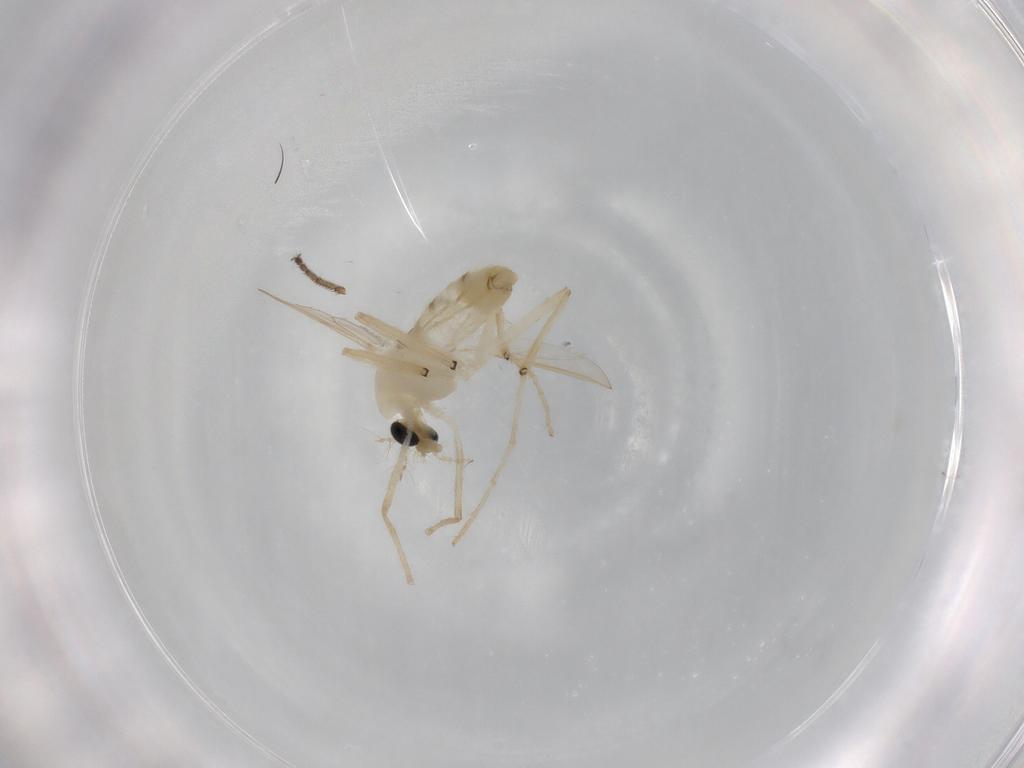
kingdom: Animalia
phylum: Arthropoda
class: Insecta
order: Diptera
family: Chironomidae
